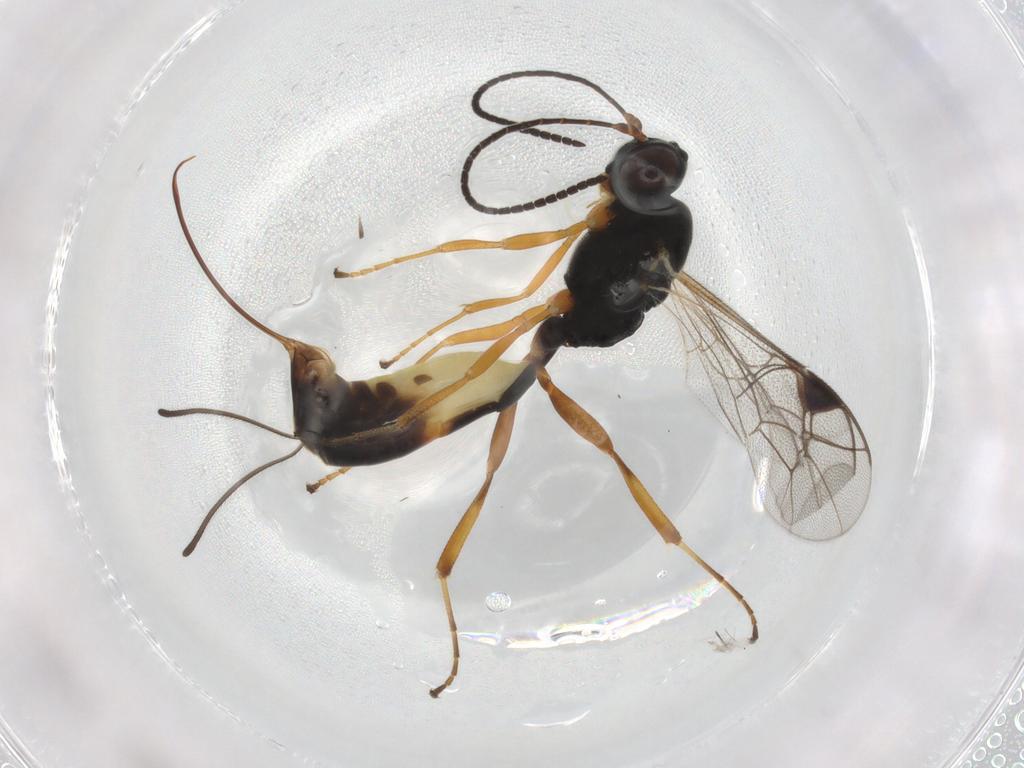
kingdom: Animalia
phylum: Arthropoda
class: Insecta
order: Hymenoptera
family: Ichneumonidae
